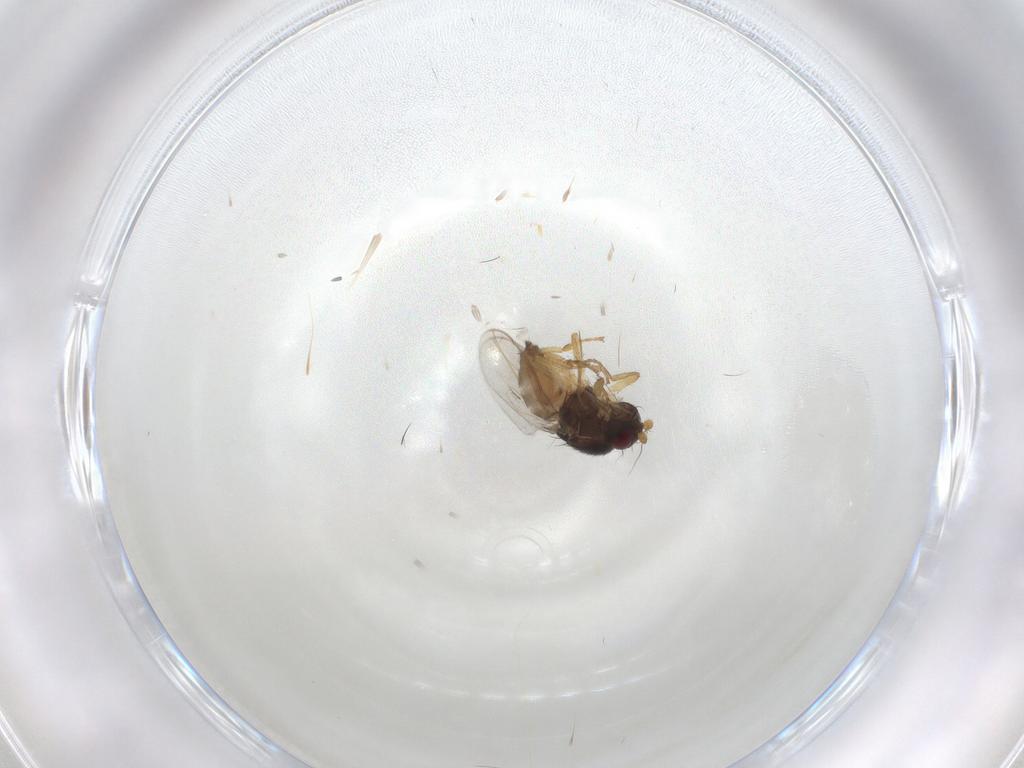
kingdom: Animalia
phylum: Arthropoda
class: Insecta
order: Diptera
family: Sphaeroceridae
